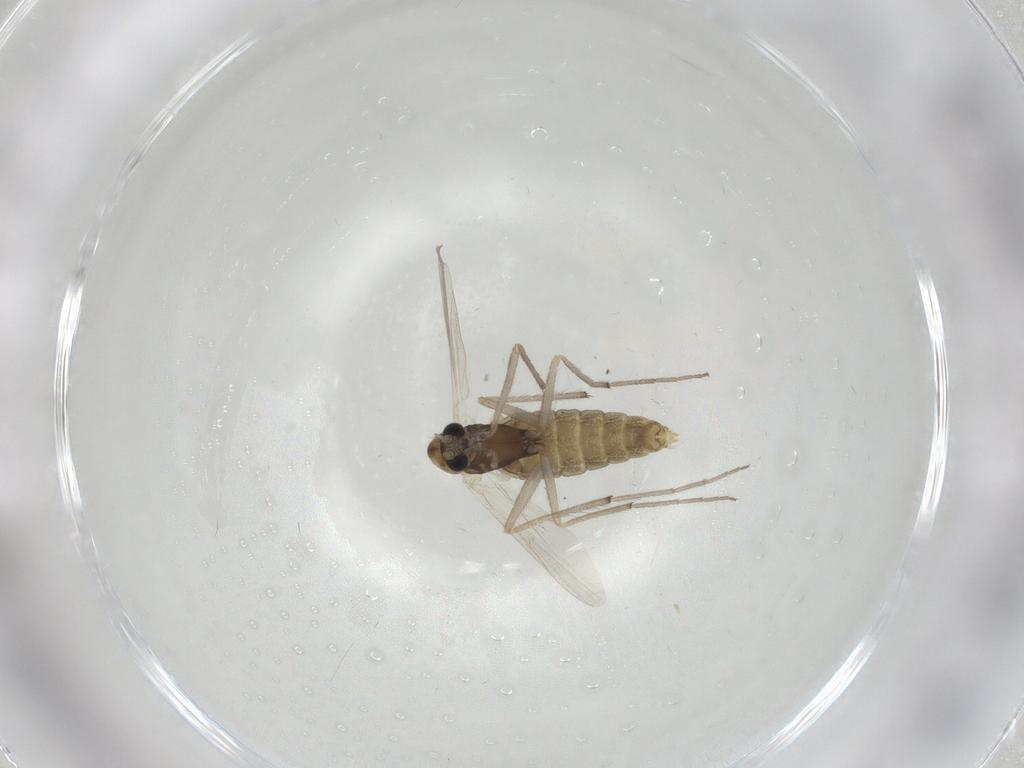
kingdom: Animalia
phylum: Arthropoda
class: Insecta
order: Diptera
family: Chironomidae
